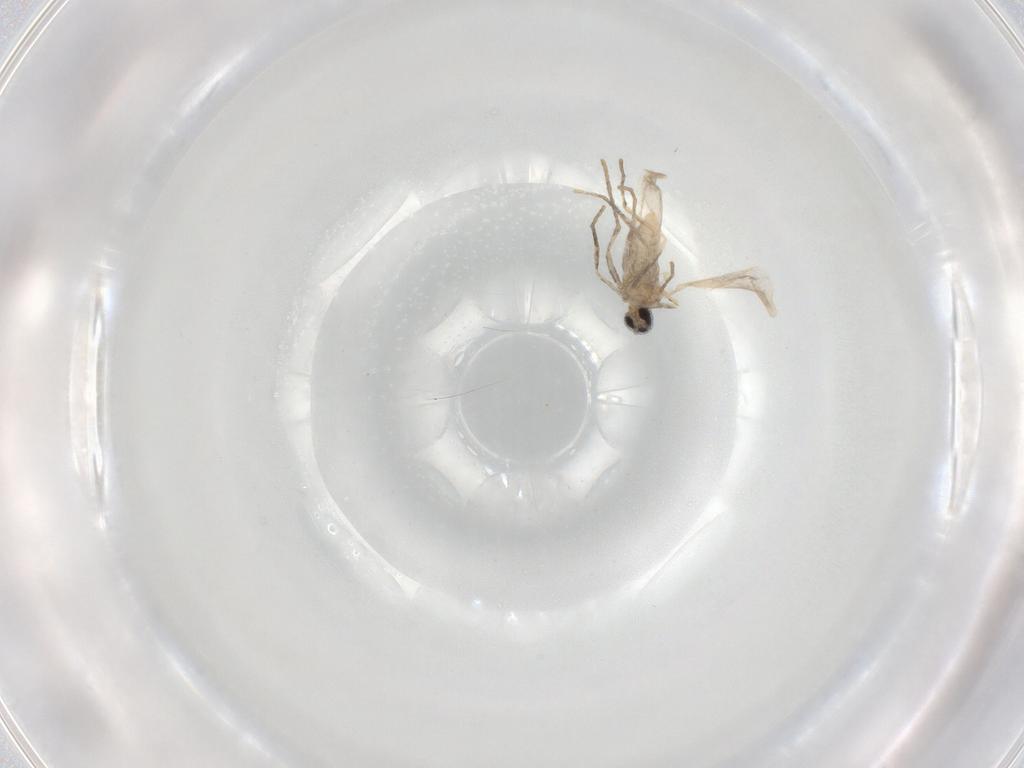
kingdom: Animalia
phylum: Arthropoda
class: Insecta
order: Diptera
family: Cecidomyiidae
